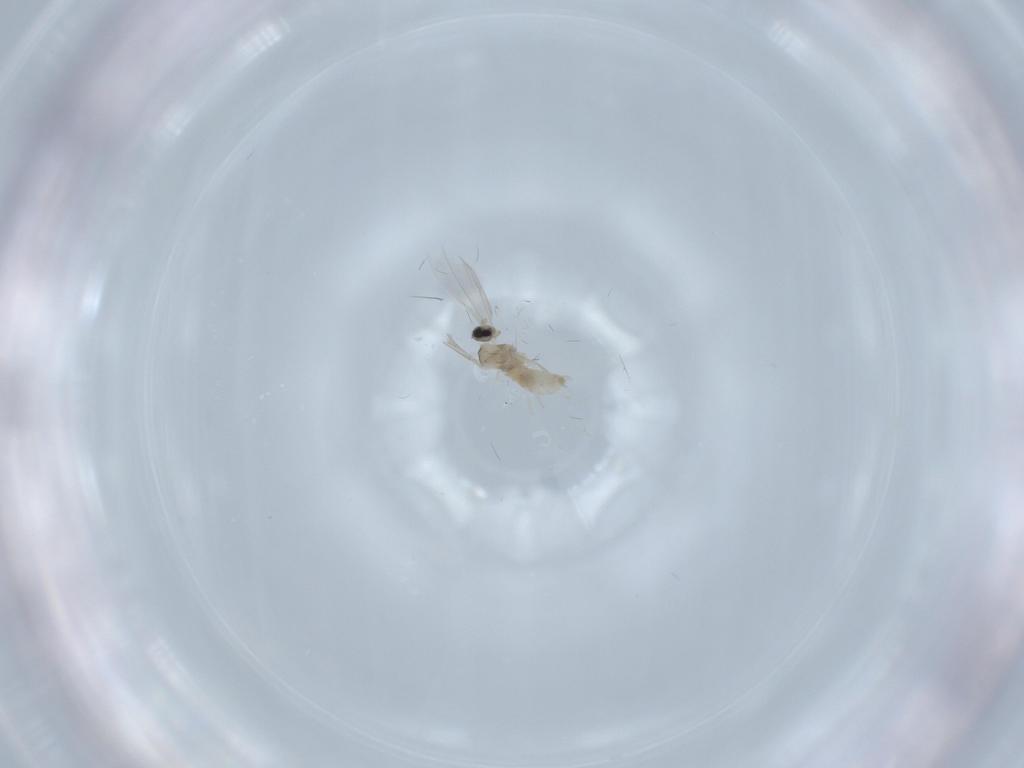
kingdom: Animalia
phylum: Arthropoda
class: Insecta
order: Diptera
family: Cecidomyiidae
